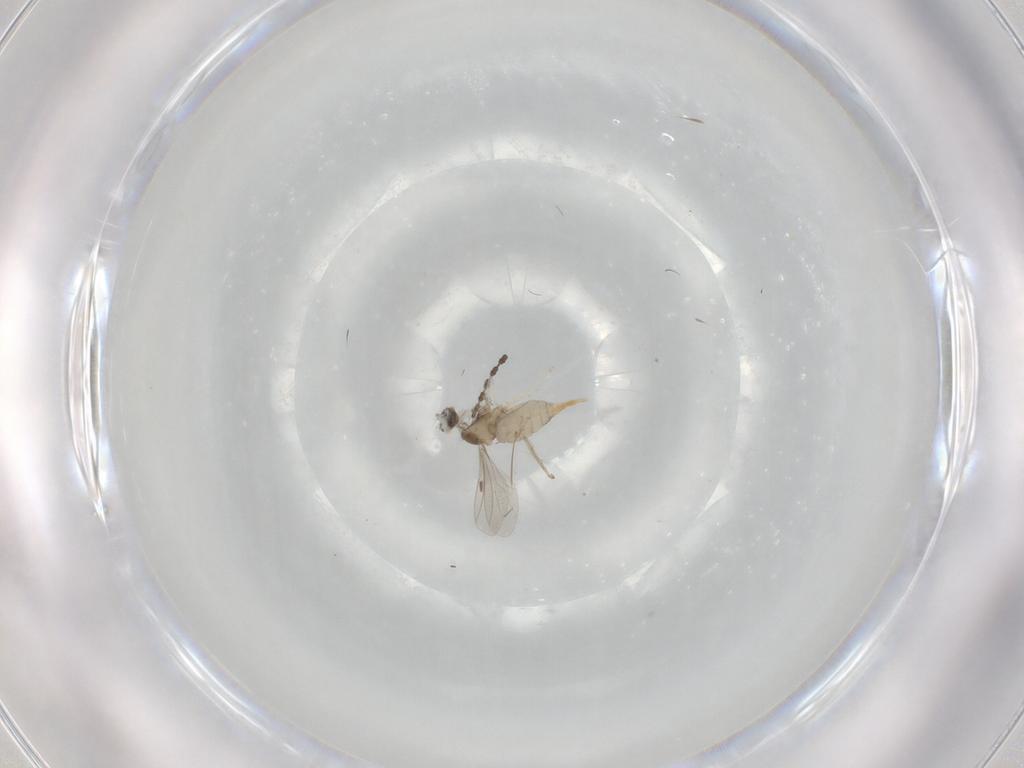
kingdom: Animalia
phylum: Arthropoda
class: Insecta
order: Diptera
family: Cecidomyiidae
